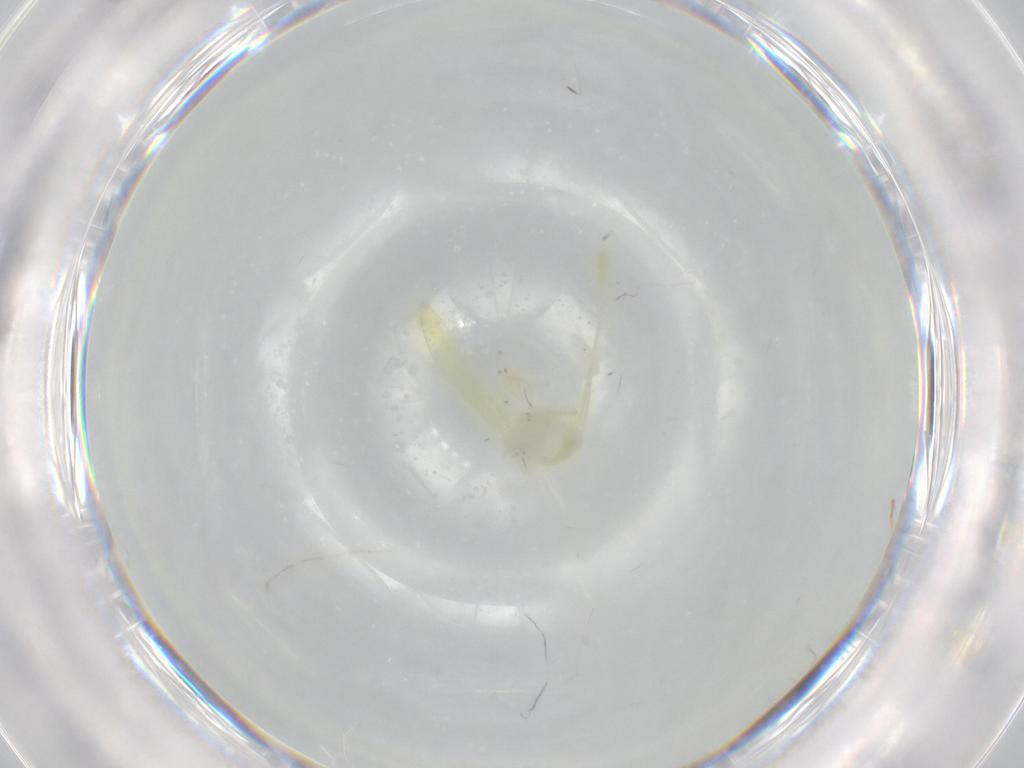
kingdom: Animalia
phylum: Arthropoda
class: Insecta
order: Hemiptera
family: Cicadellidae
